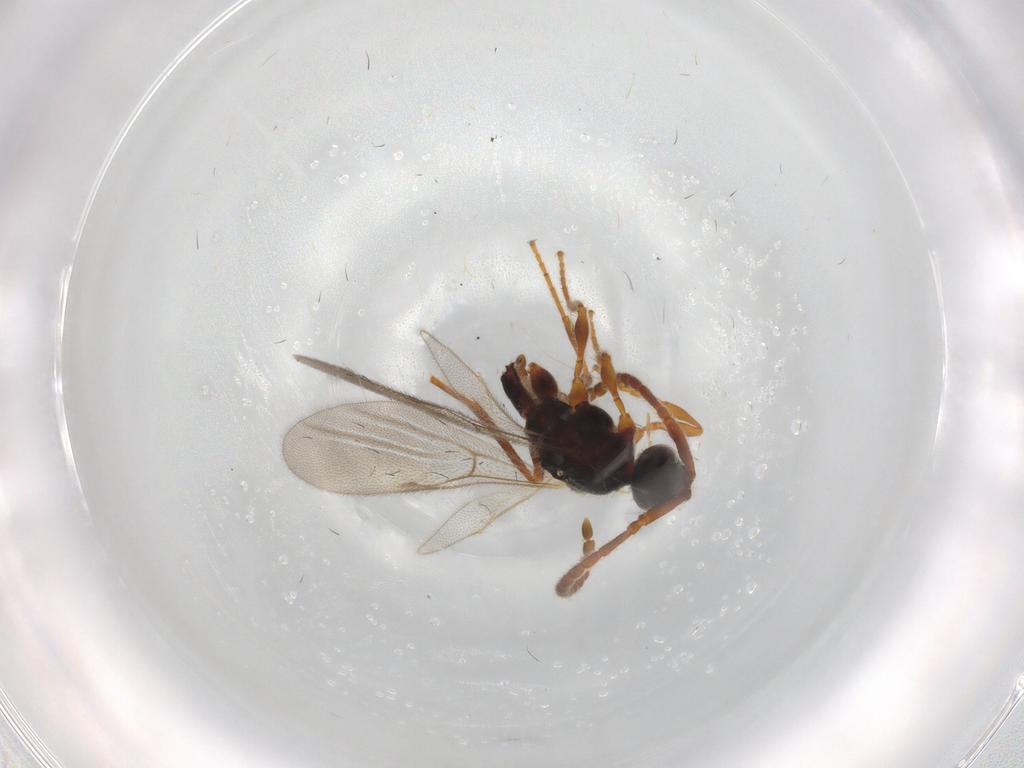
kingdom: Animalia
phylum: Arthropoda
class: Insecta
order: Hymenoptera
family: Diapriidae
